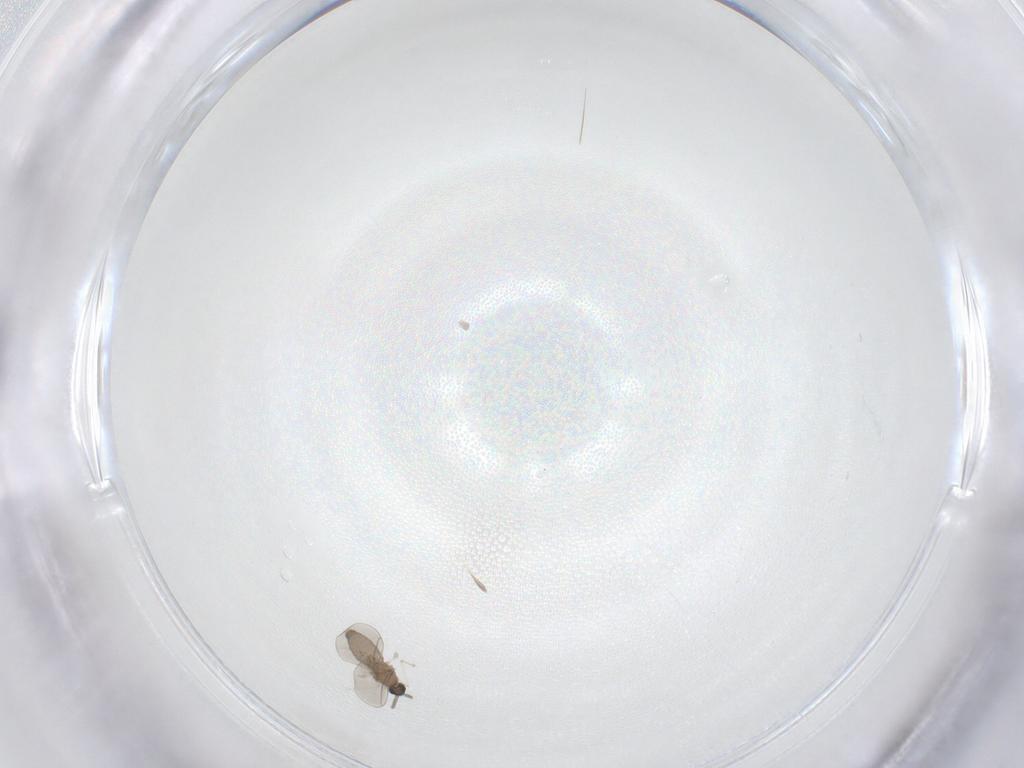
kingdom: Animalia
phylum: Arthropoda
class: Insecta
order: Diptera
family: Cecidomyiidae
